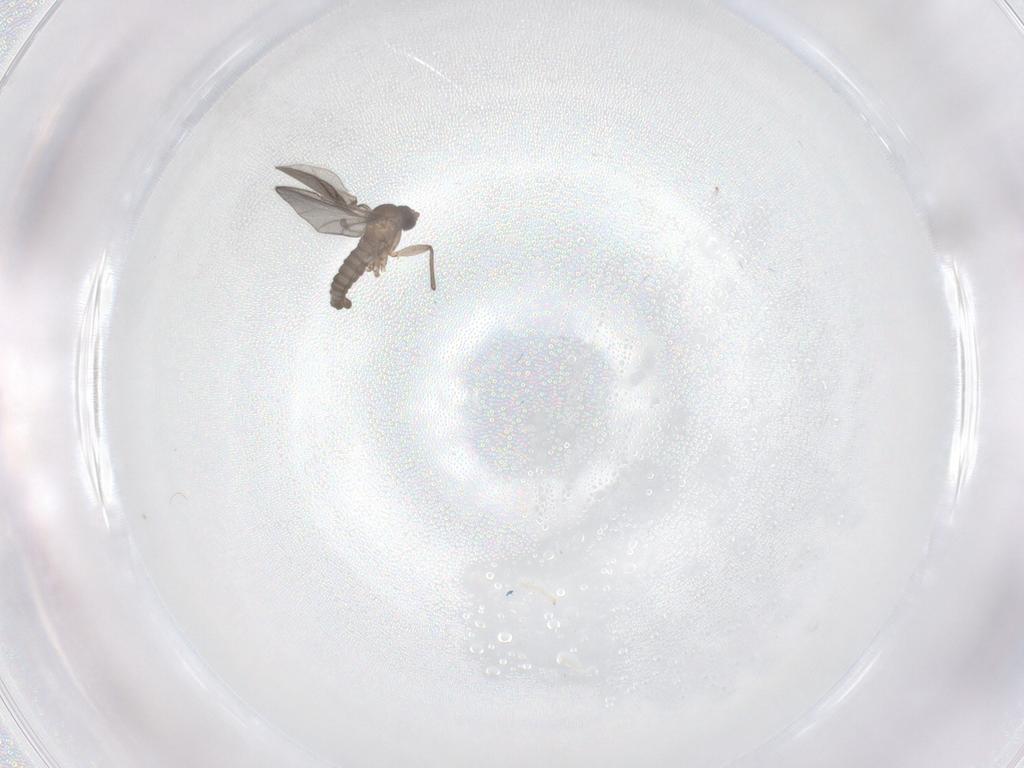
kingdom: Animalia
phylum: Arthropoda
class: Insecta
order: Diptera
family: Sciaridae
